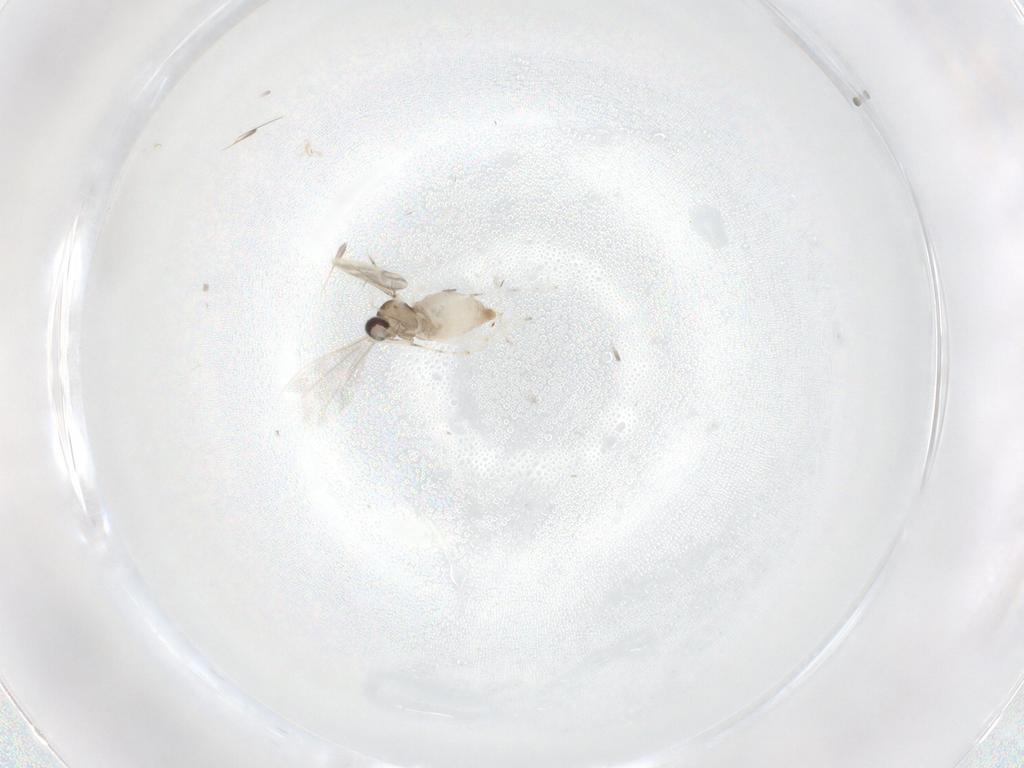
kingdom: Animalia
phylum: Arthropoda
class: Insecta
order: Diptera
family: Cecidomyiidae
